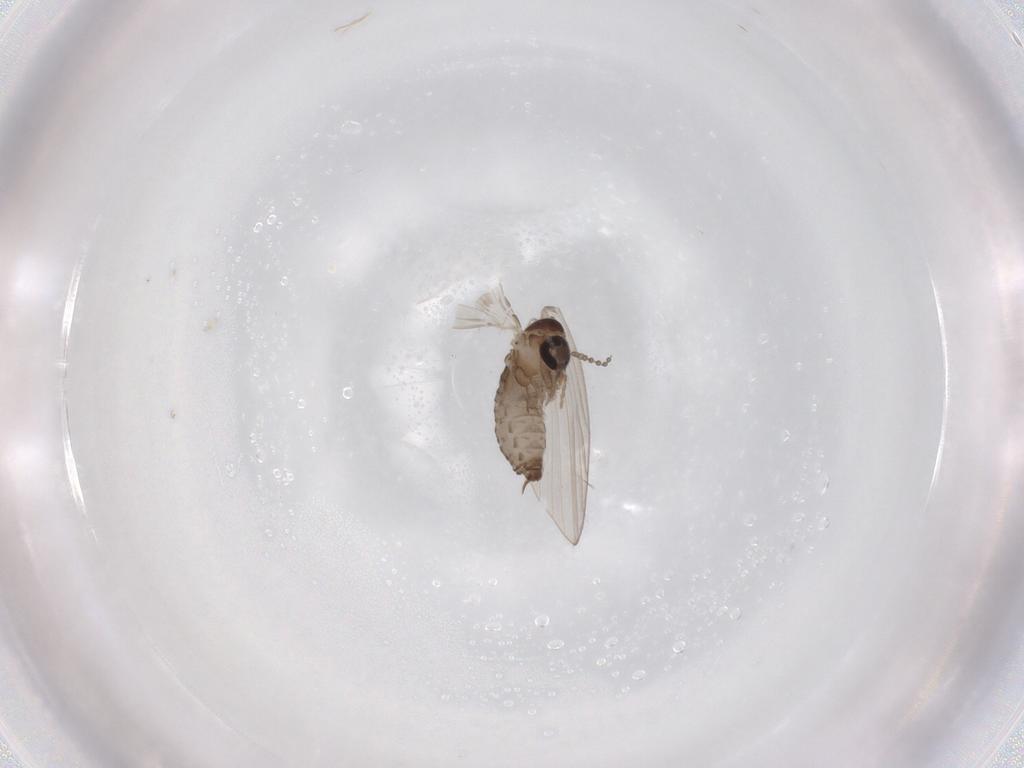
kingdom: Animalia
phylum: Arthropoda
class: Insecta
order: Diptera
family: Psychodidae
